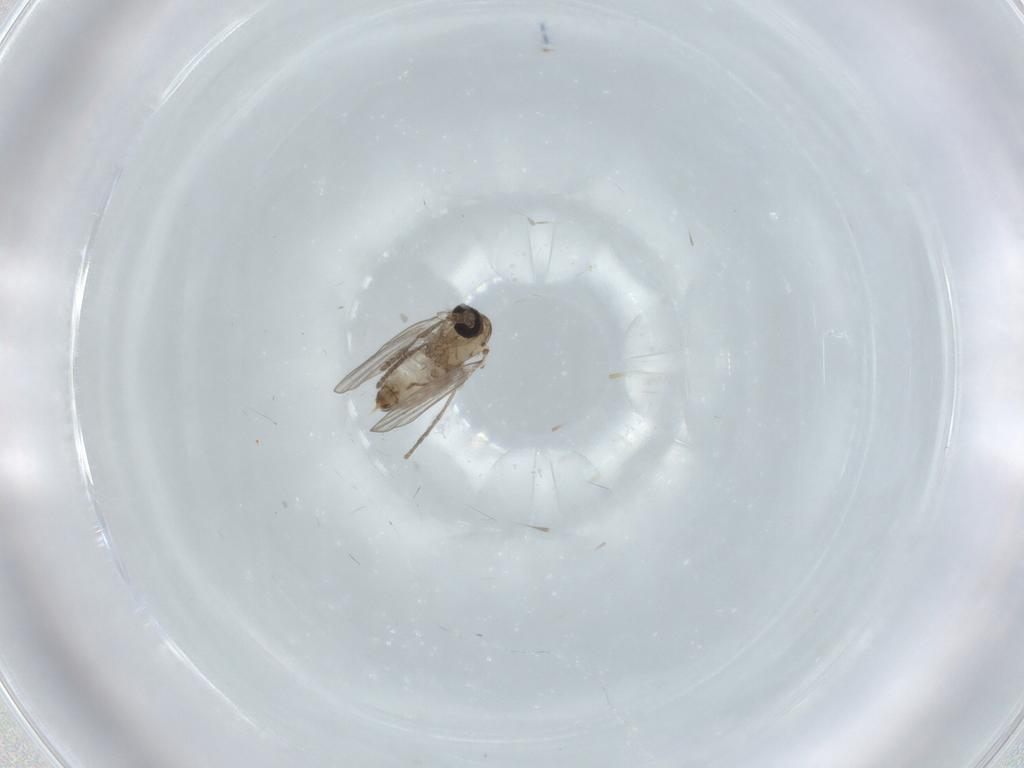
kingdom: Animalia
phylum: Arthropoda
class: Insecta
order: Diptera
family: Psychodidae
